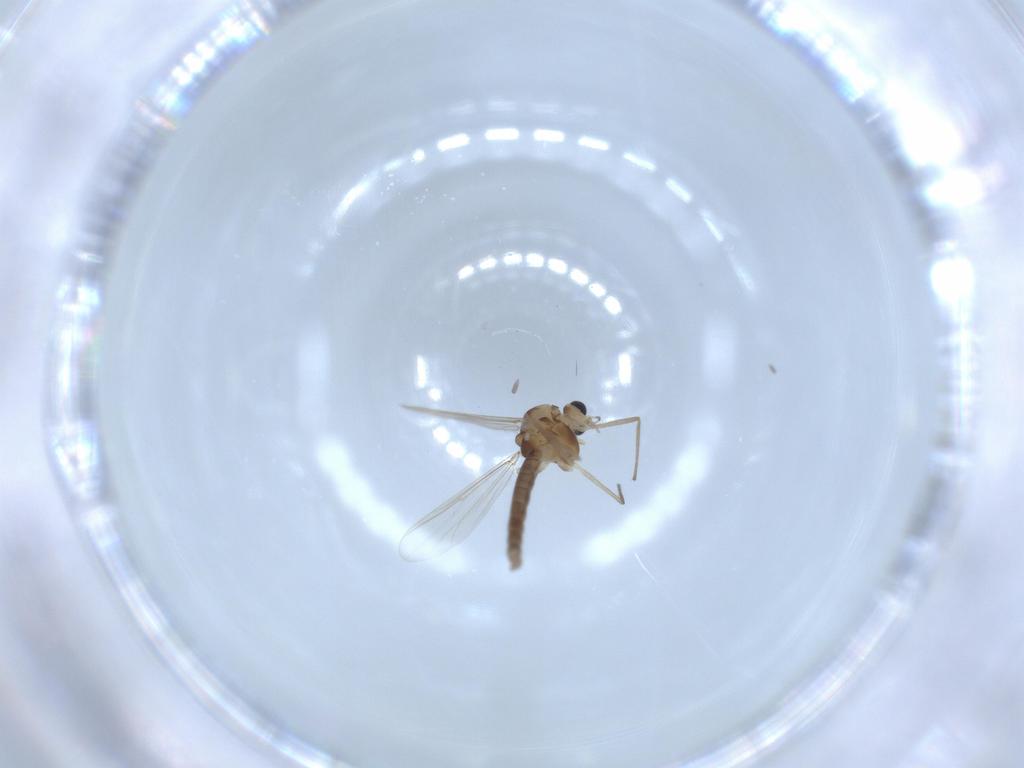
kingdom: Animalia
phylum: Arthropoda
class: Insecta
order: Diptera
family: Chironomidae
